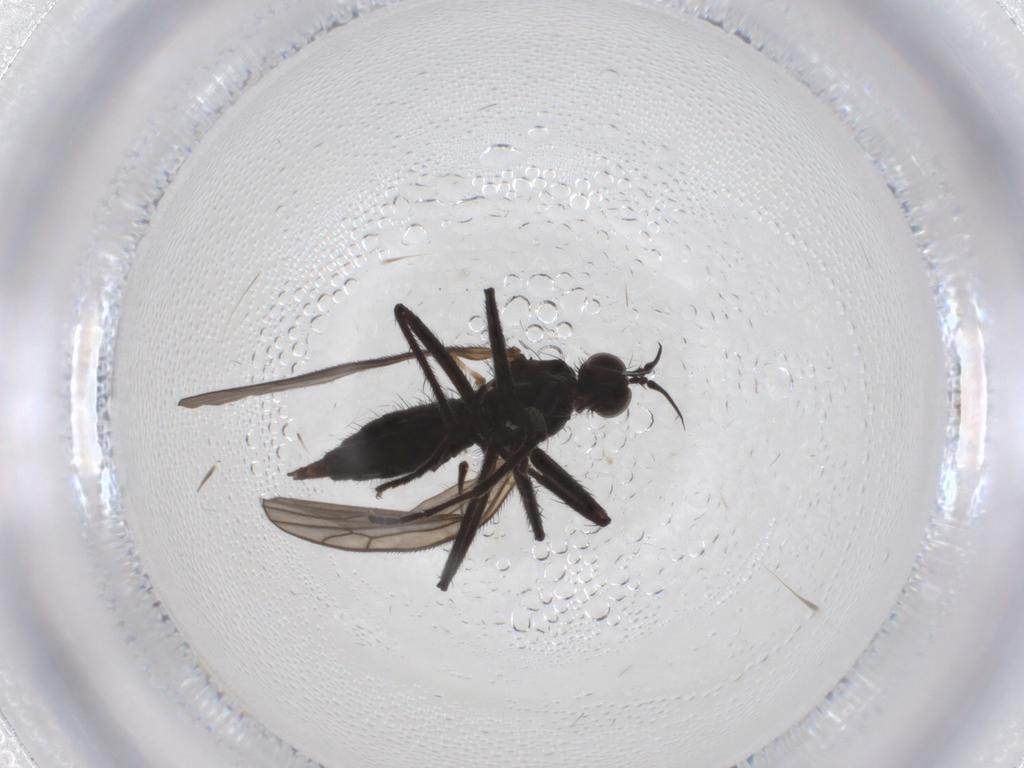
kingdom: Animalia
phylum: Arthropoda
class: Insecta
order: Diptera
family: Empididae
